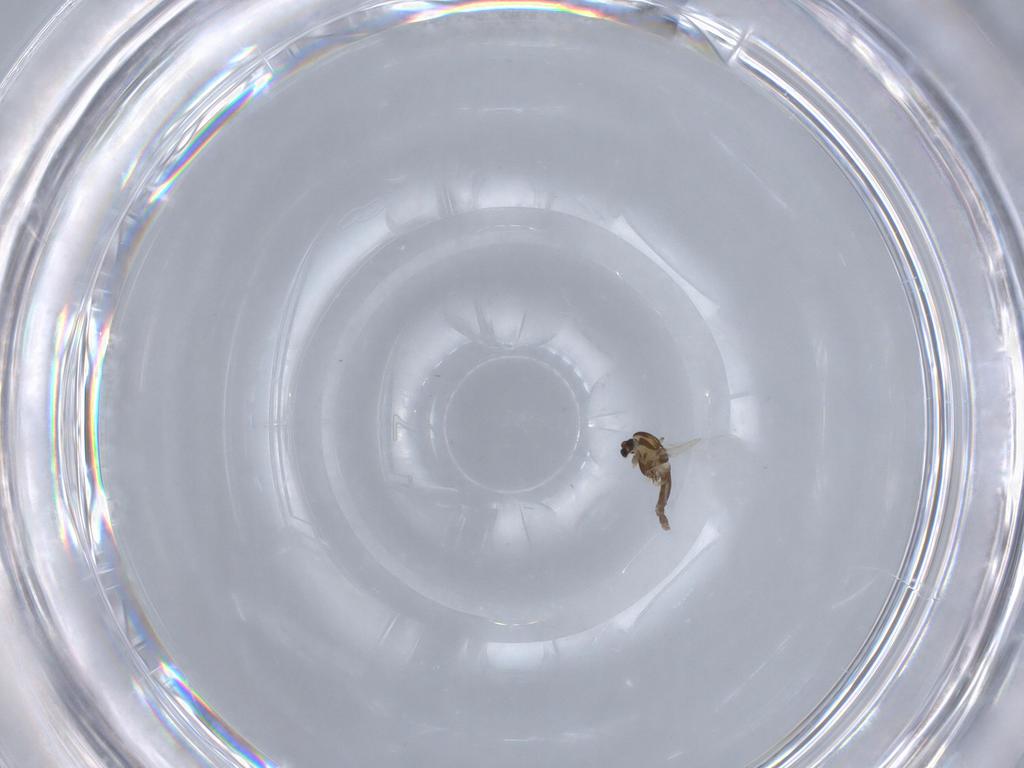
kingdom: Animalia
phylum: Arthropoda
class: Insecta
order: Diptera
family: Chironomidae
